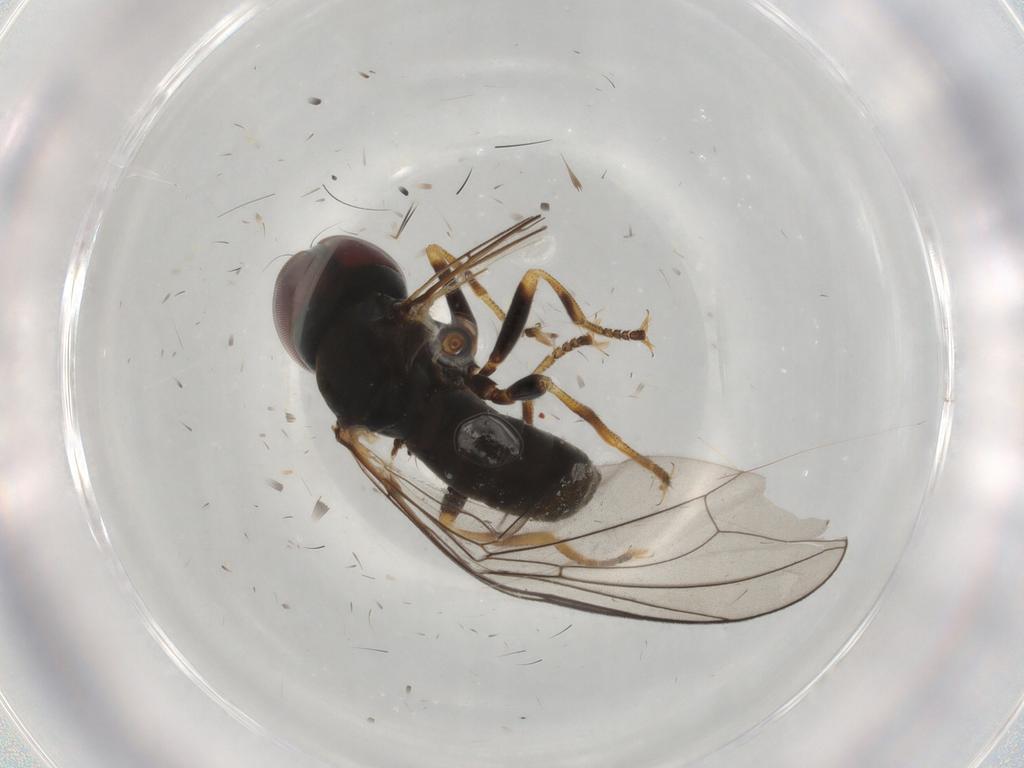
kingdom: Animalia
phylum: Arthropoda
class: Insecta
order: Diptera
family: Pipunculidae
